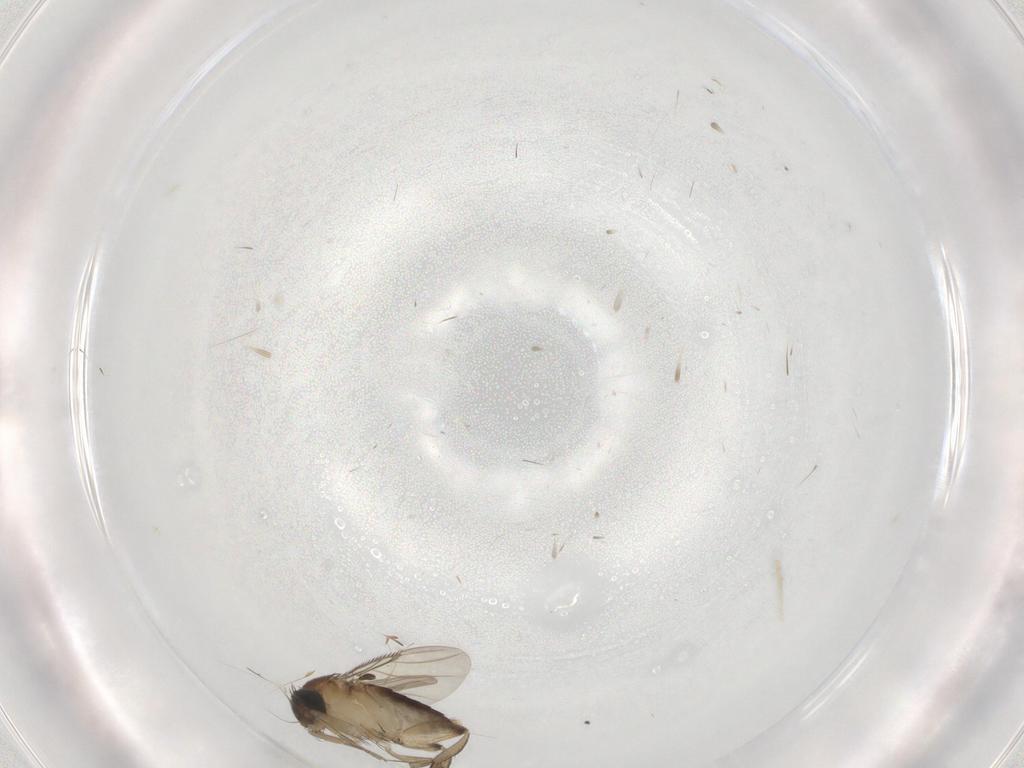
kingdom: Animalia
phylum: Arthropoda
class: Insecta
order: Diptera
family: Phoridae
